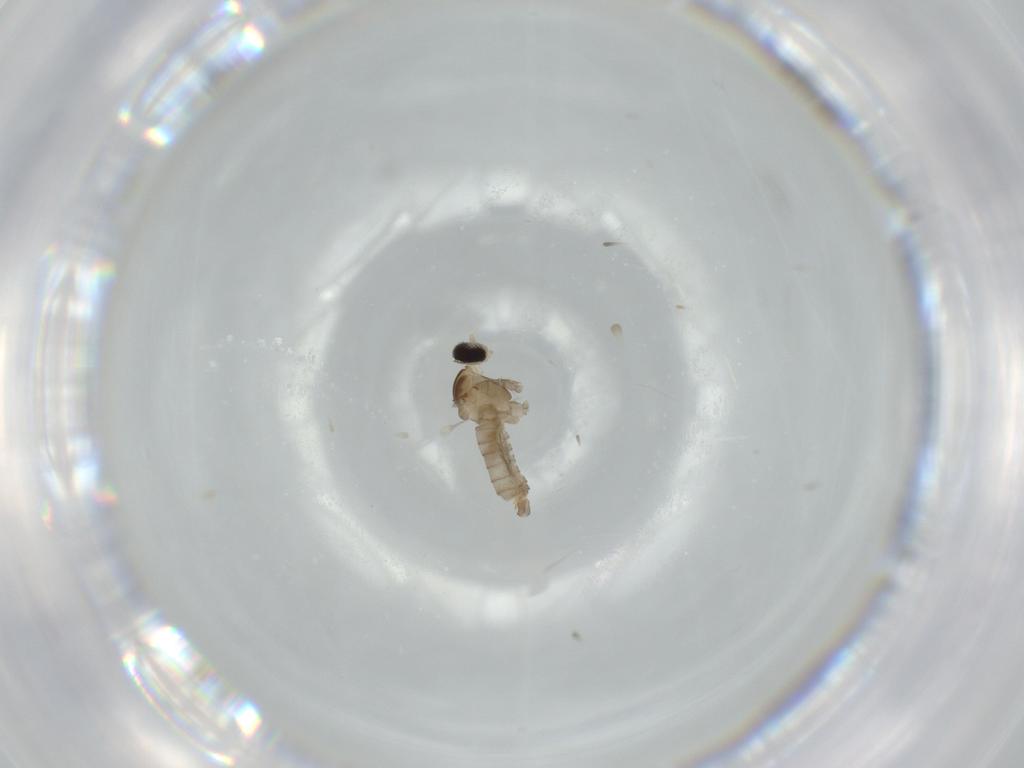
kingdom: Animalia
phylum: Arthropoda
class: Insecta
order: Diptera
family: Cecidomyiidae
